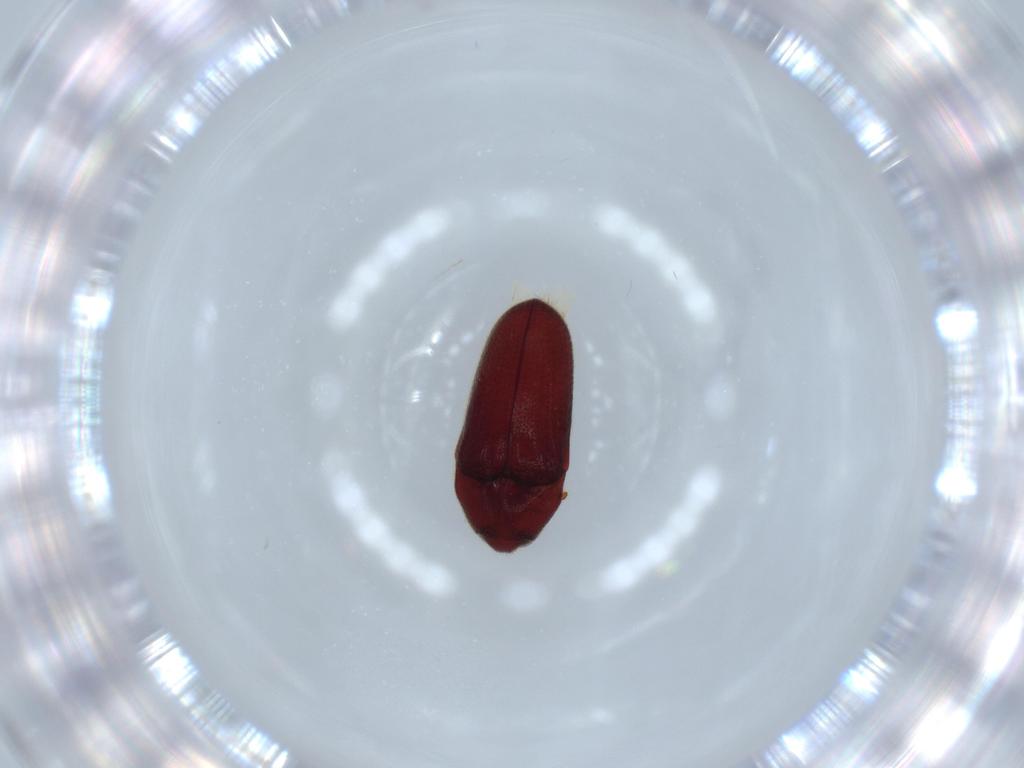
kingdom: Animalia
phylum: Arthropoda
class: Insecta
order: Coleoptera
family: Throscidae
